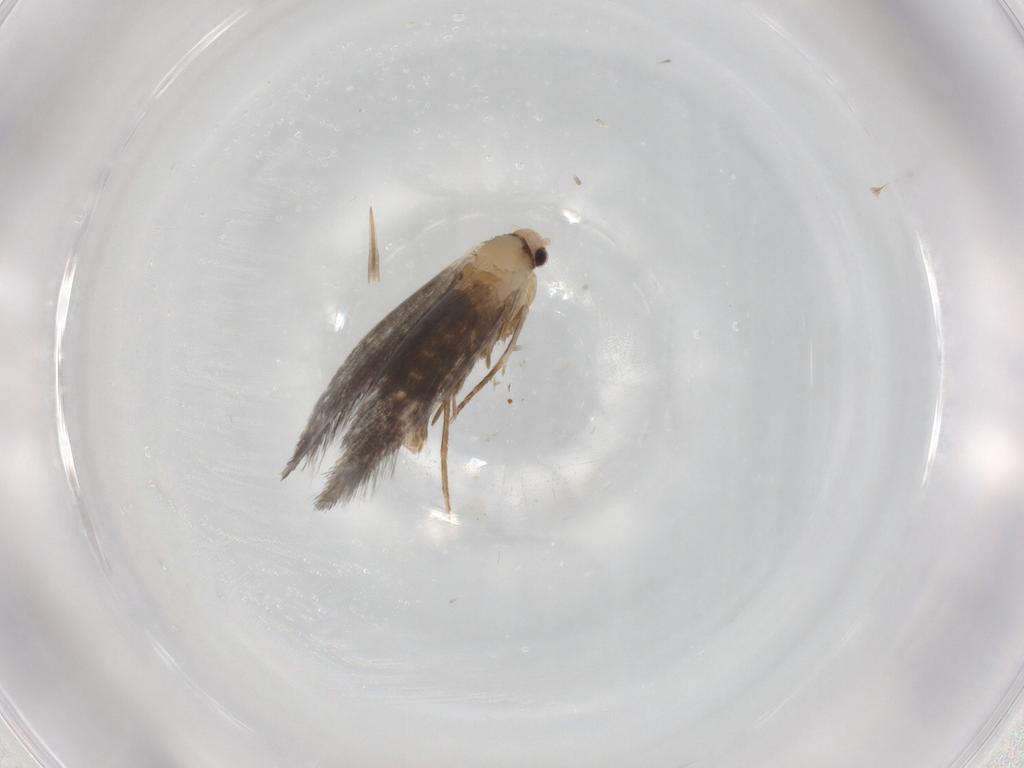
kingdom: Animalia
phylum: Arthropoda
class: Insecta
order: Lepidoptera
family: Tineidae
